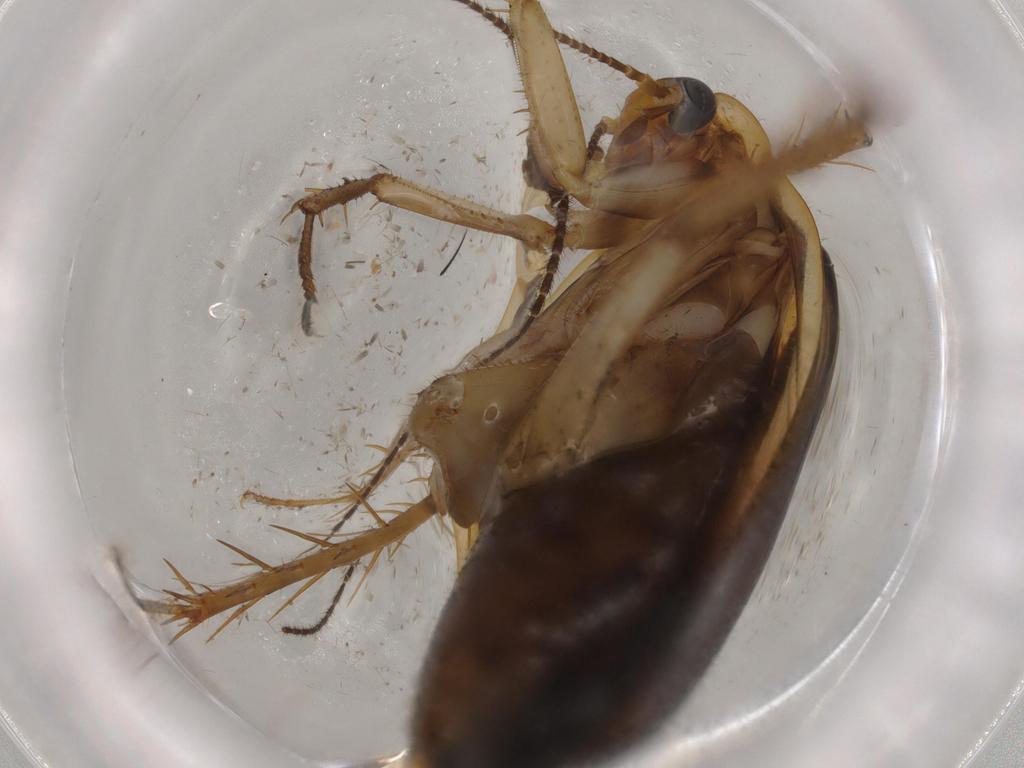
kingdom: Animalia
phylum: Arthropoda
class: Insecta
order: Blattodea
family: Ectobiidae
